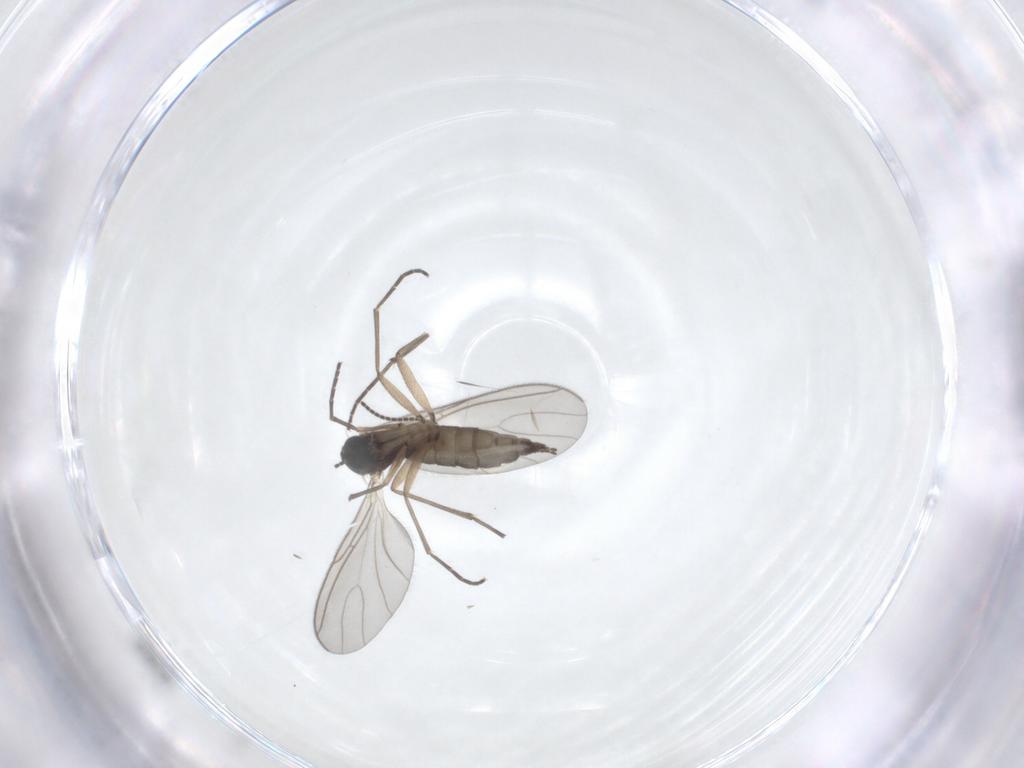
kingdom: Animalia
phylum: Arthropoda
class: Insecta
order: Diptera
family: Sciaridae
